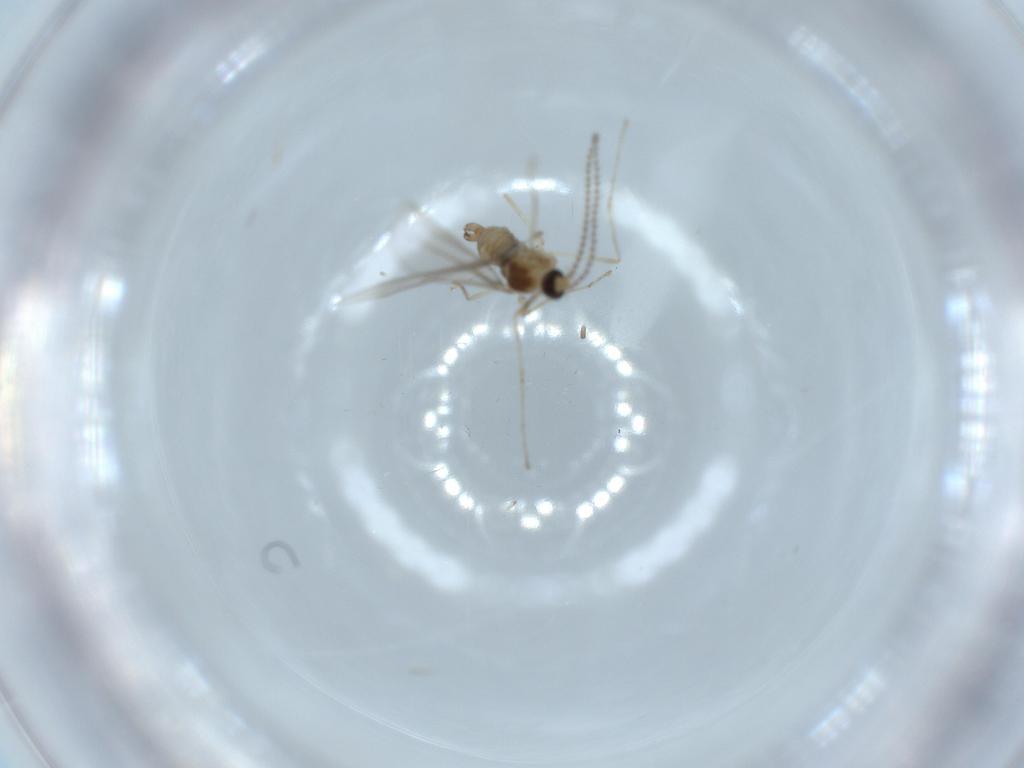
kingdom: Animalia
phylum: Arthropoda
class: Insecta
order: Diptera
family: Cecidomyiidae
